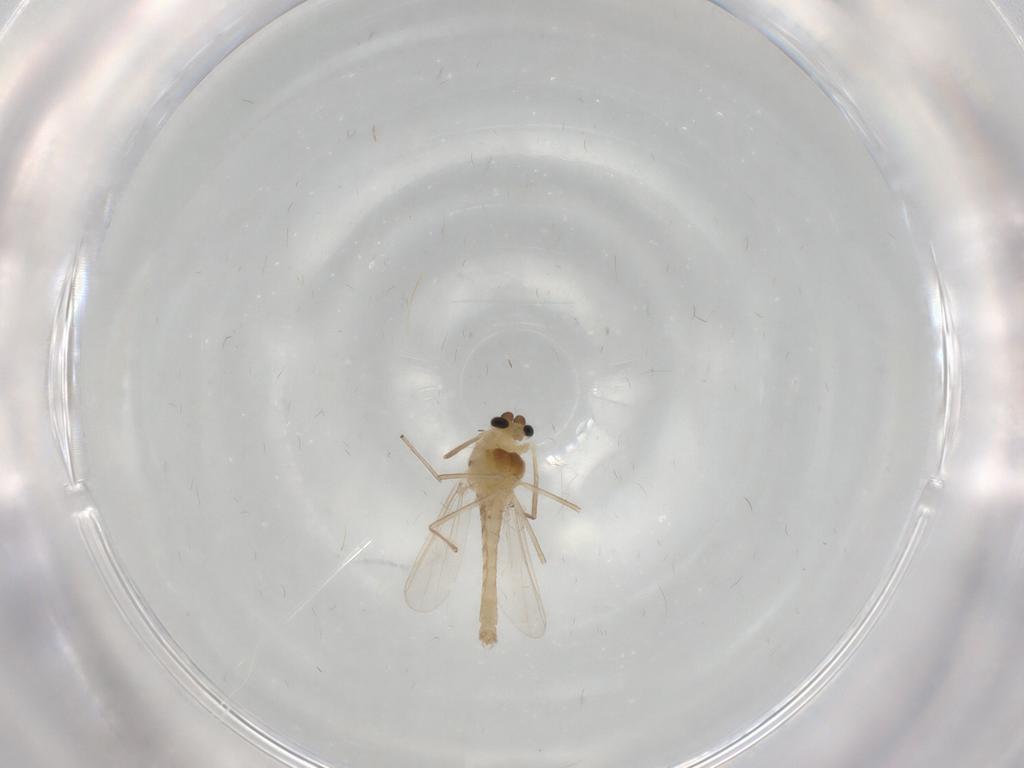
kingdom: Animalia
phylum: Arthropoda
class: Insecta
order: Diptera
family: Chironomidae
